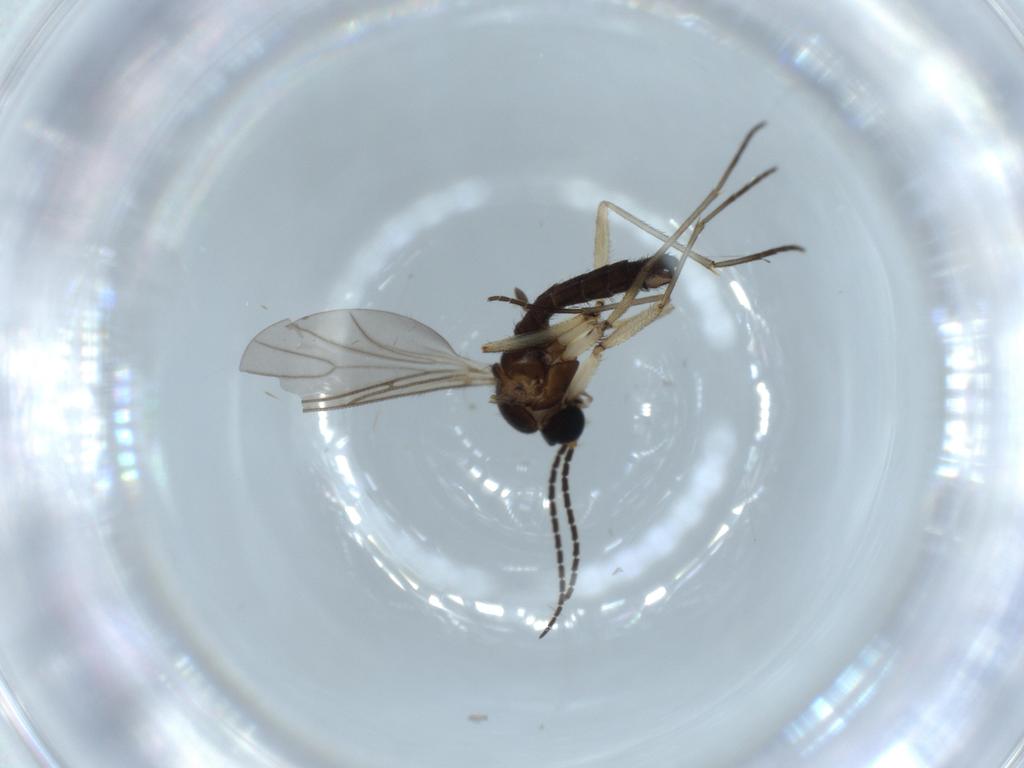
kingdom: Animalia
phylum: Arthropoda
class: Insecta
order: Diptera
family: Sciaridae
